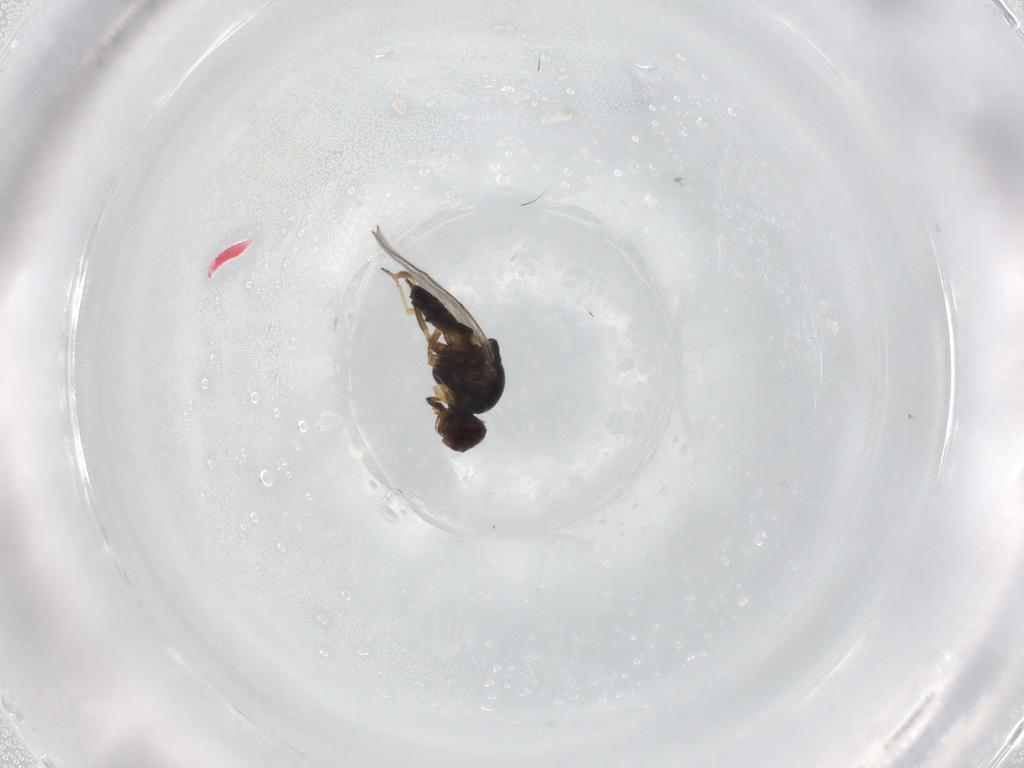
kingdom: Animalia
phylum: Arthropoda
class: Insecta
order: Diptera
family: Chloropidae
